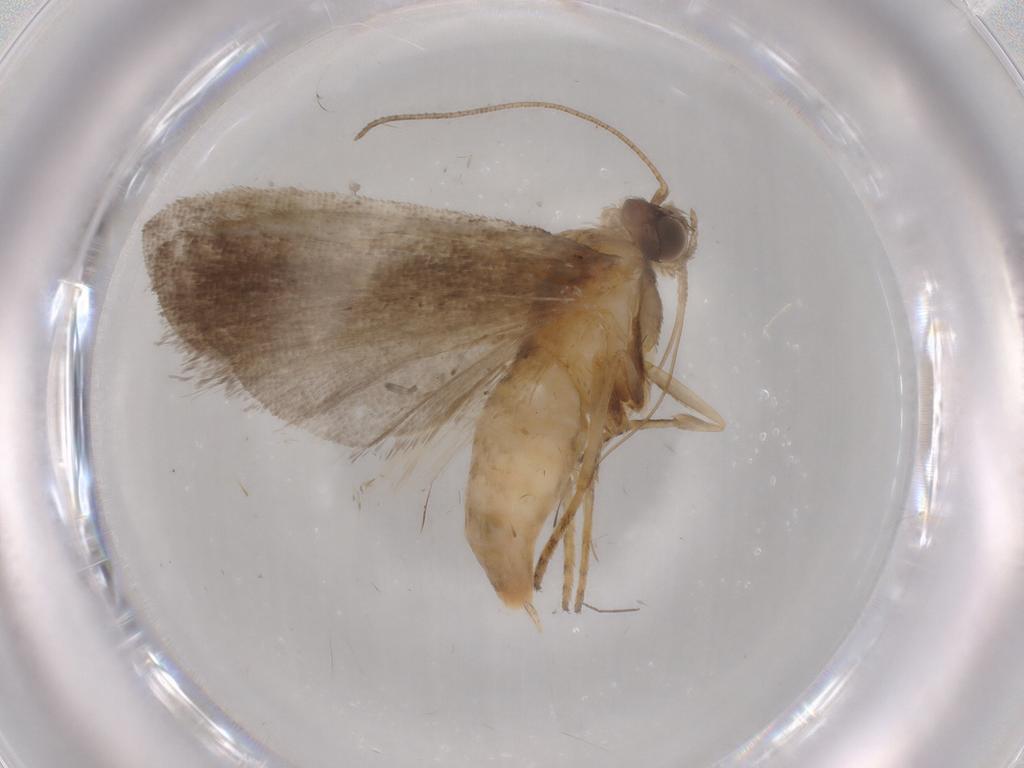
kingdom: Animalia
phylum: Arthropoda
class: Insecta
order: Lepidoptera
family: Noctuidae
